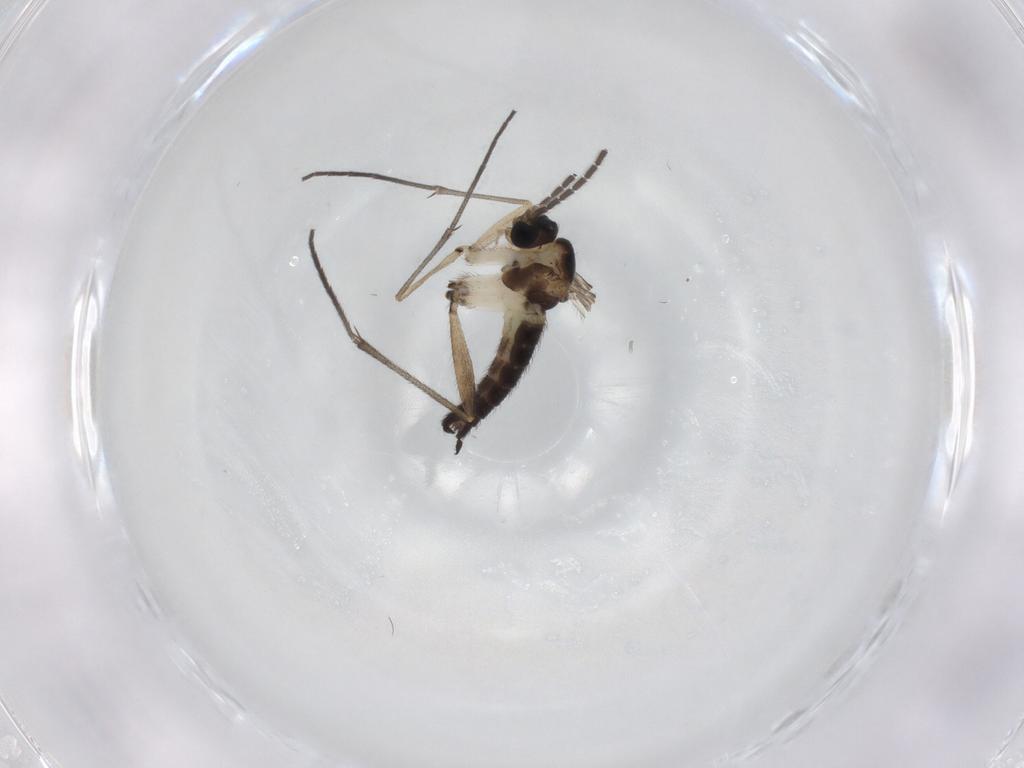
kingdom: Animalia
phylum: Arthropoda
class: Insecta
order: Diptera
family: Sciaridae
